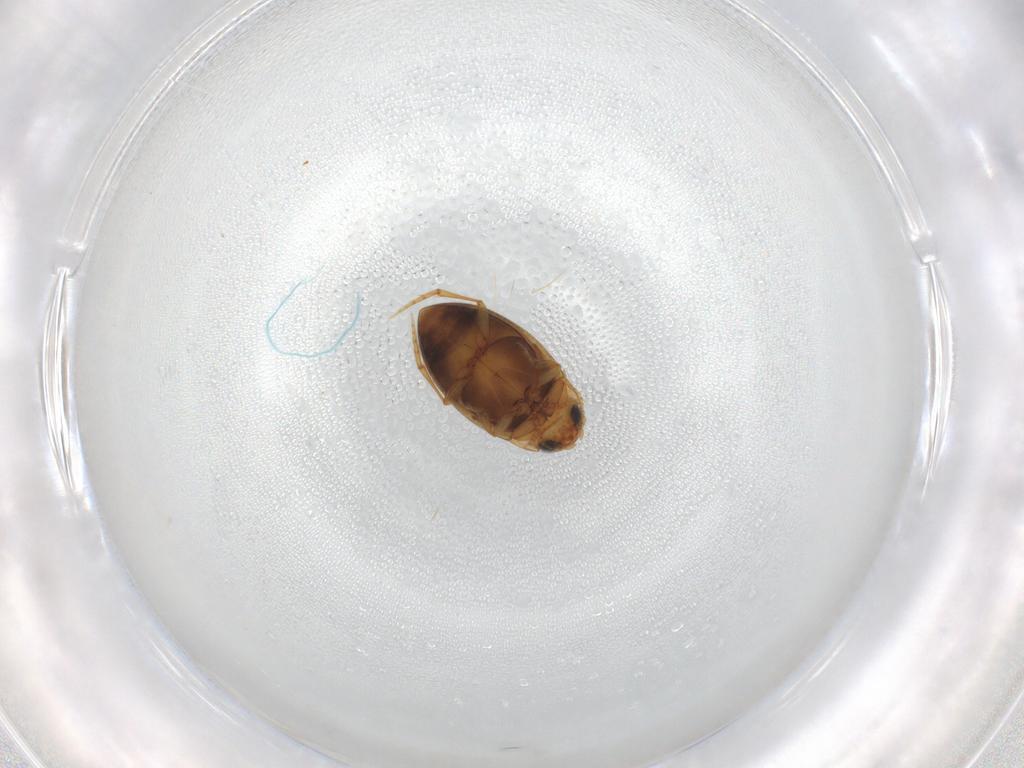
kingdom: Animalia
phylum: Arthropoda
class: Insecta
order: Coleoptera
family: Dytiscidae
